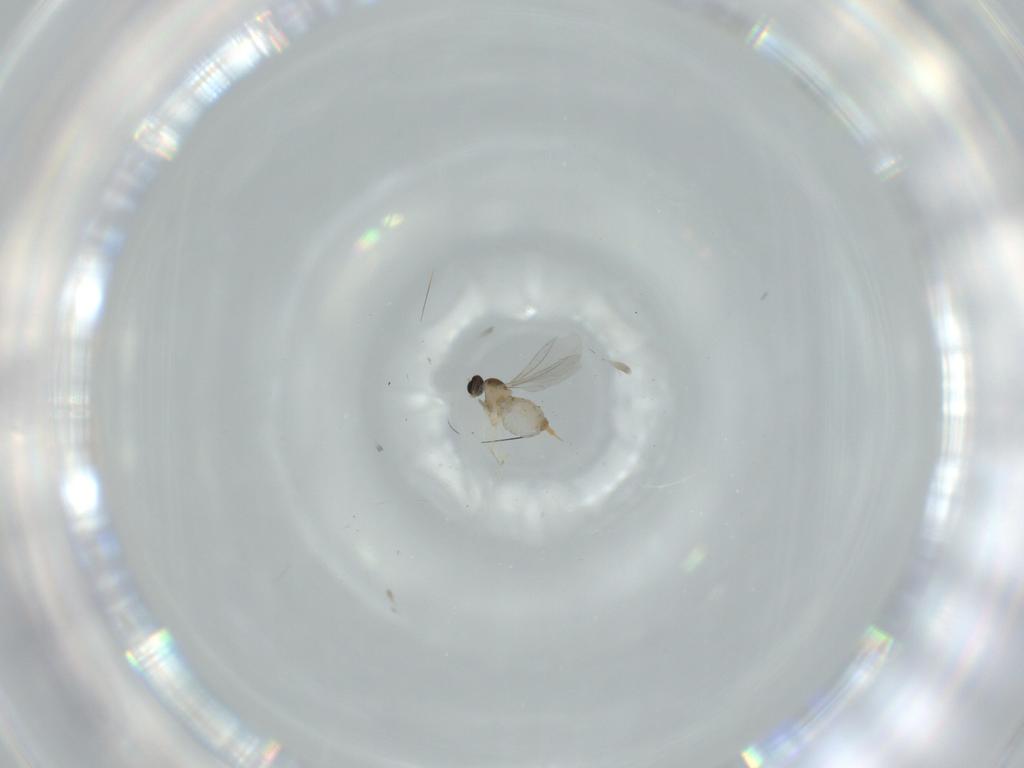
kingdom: Animalia
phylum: Arthropoda
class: Insecta
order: Diptera
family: Cecidomyiidae
